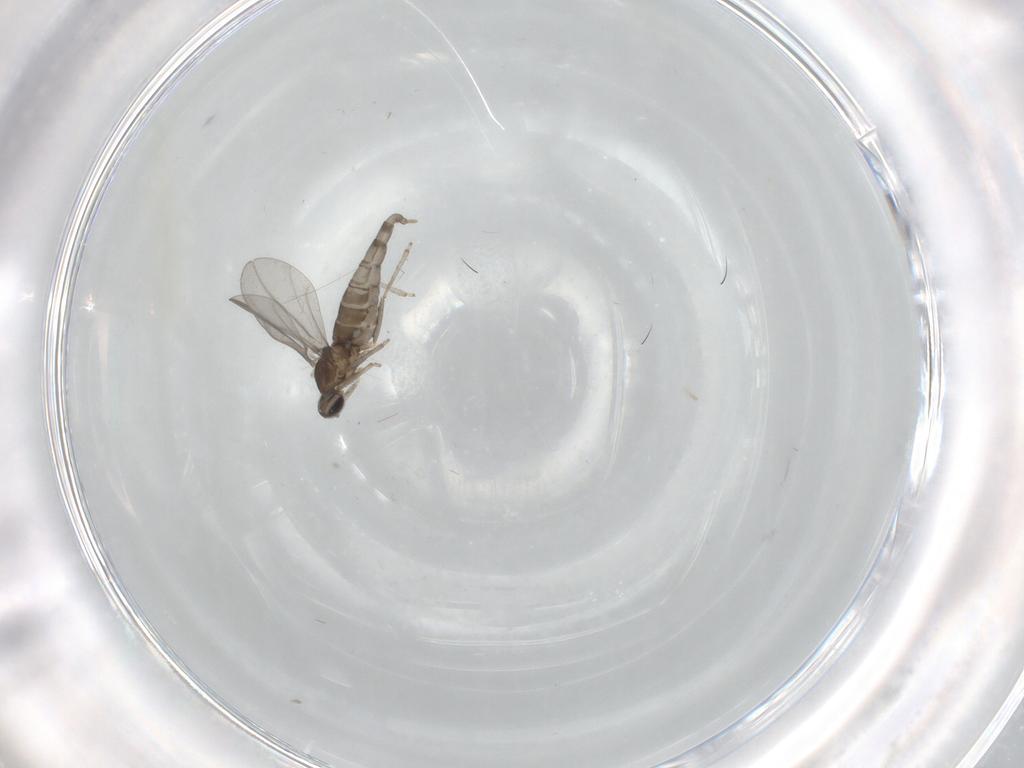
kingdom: Animalia
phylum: Arthropoda
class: Insecta
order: Diptera
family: Cecidomyiidae
